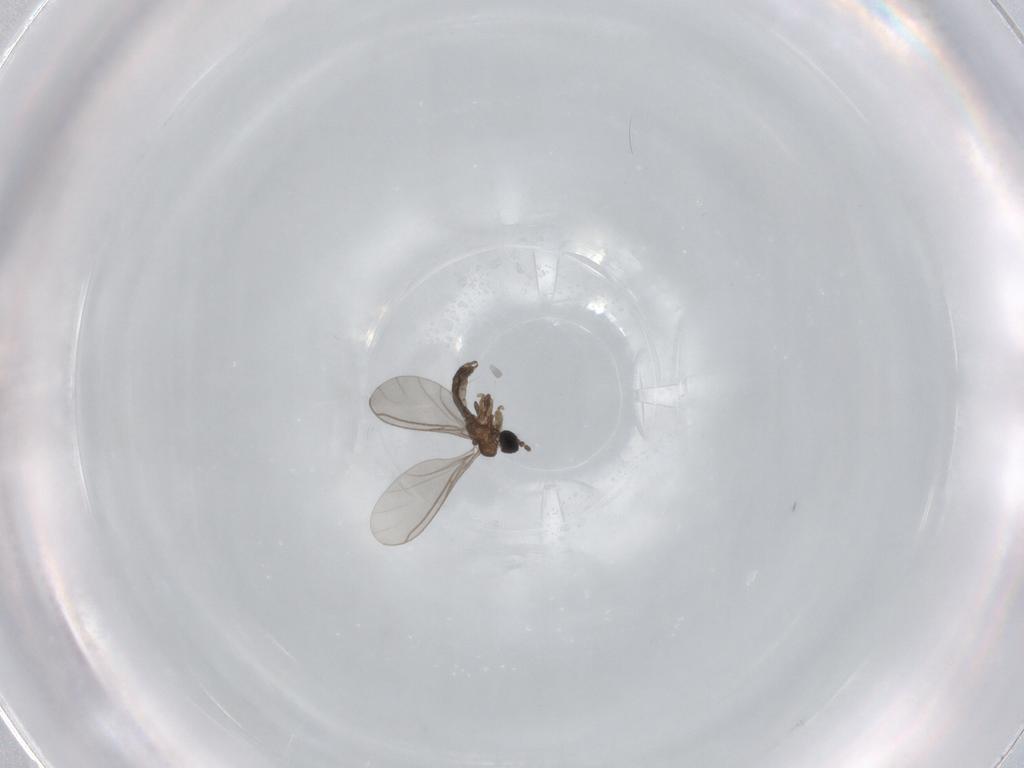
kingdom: Animalia
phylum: Arthropoda
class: Insecta
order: Diptera
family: Sciaridae
